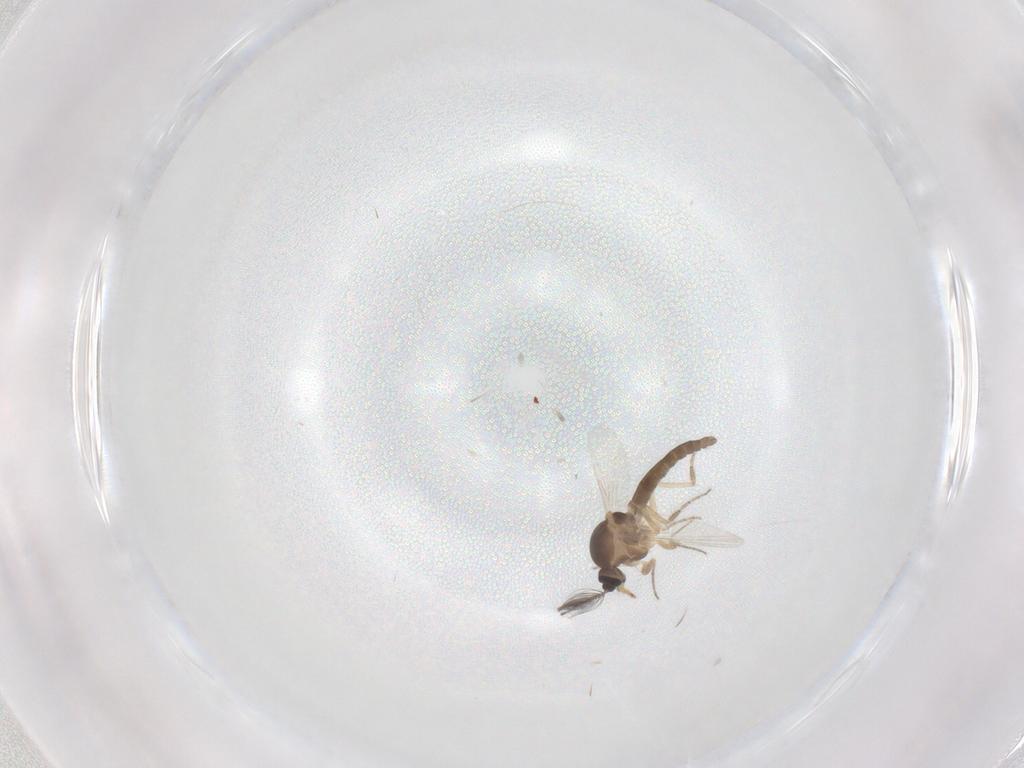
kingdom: Animalia
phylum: Arthropoda
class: Insecta
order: Diptera
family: Ceratopogonidae
